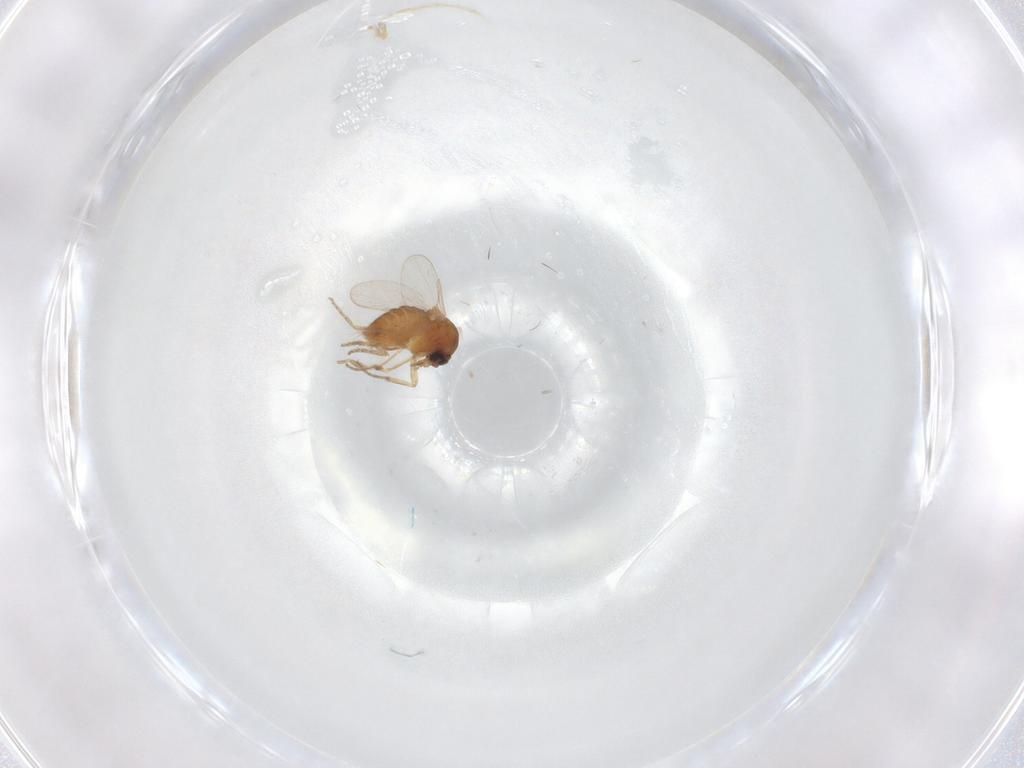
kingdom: Animalia
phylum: Arthropoda
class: Insecta
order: Diptera
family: Ceratopogonidae
